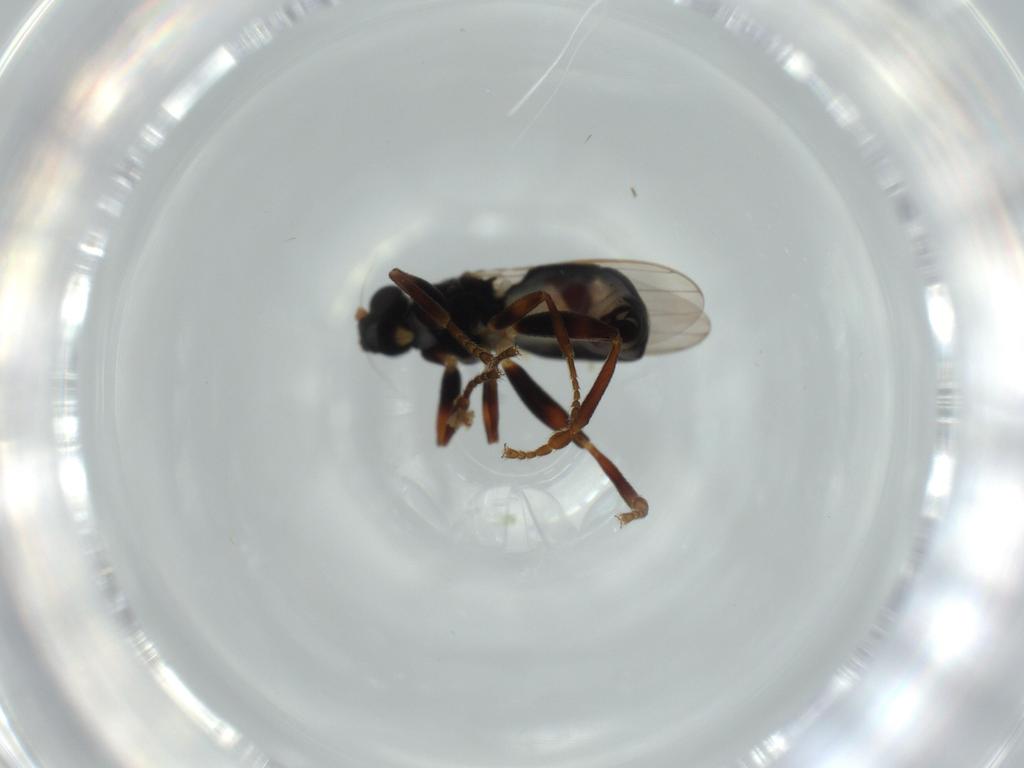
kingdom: Animalia
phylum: Arthropoda
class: Insecta
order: Diptera
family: Sphaeroceridae
